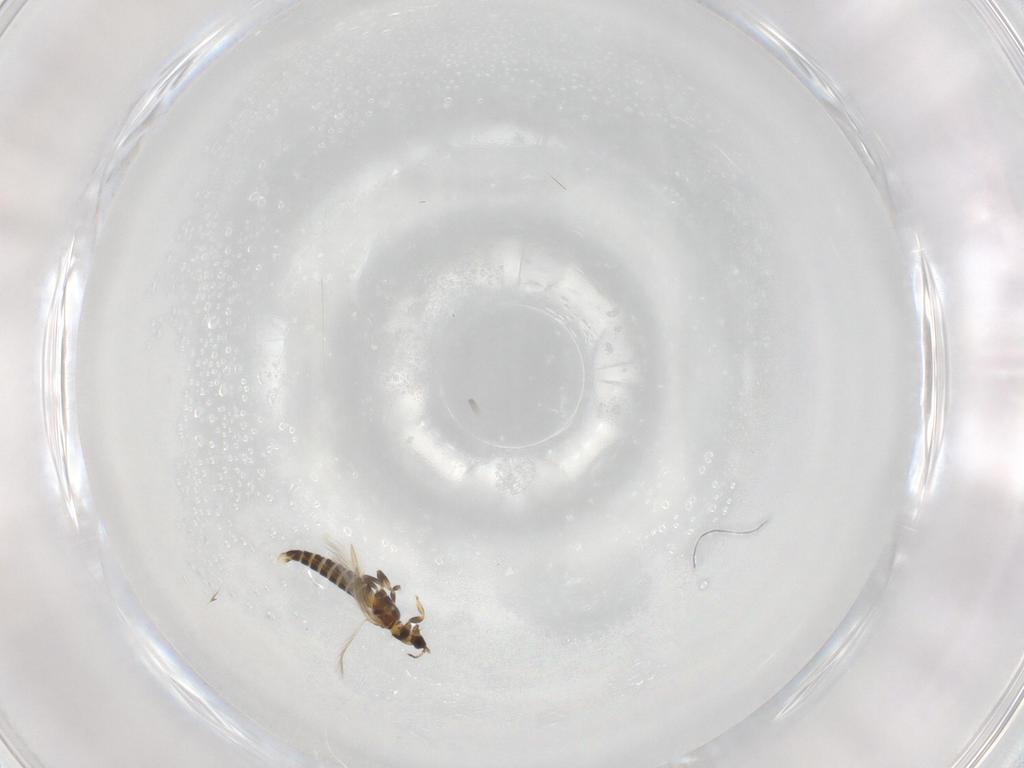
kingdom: Animalia
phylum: Arthropoda
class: Insecta
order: Thysanoptera
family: Thripidae
